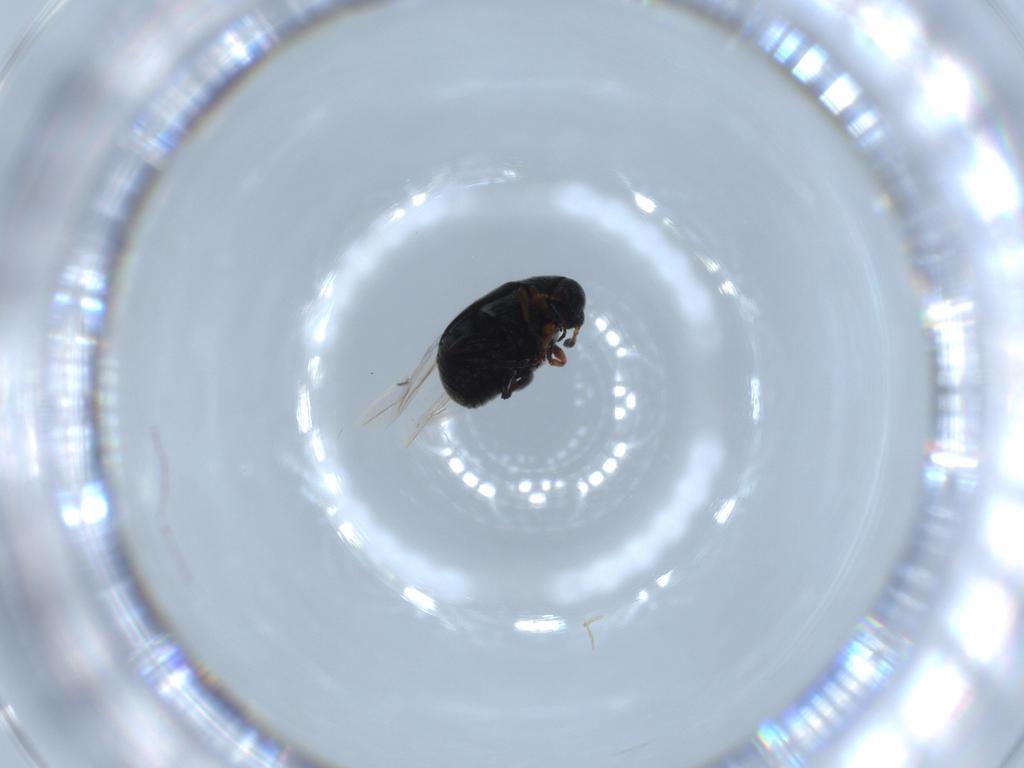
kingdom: Animalia
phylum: Arthropoda
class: Insecta
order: Coleoptera
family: Chrysomelidae
